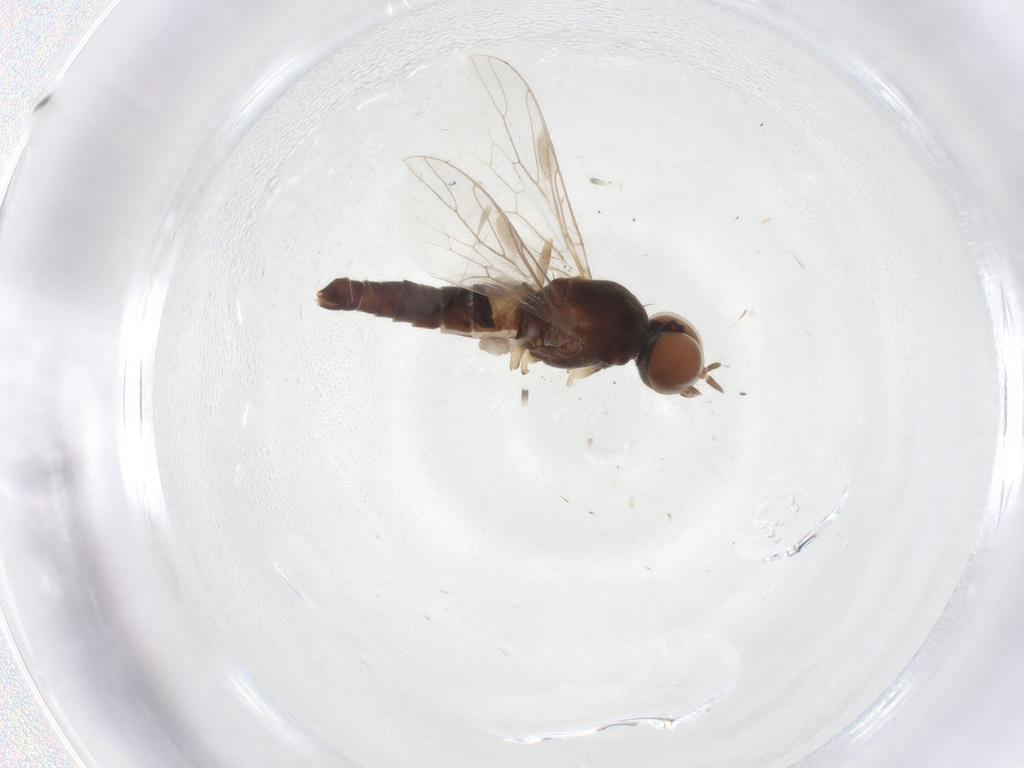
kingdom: Animalia
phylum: Arthropoda
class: Insecta
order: Diptera
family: Scenopinidae
